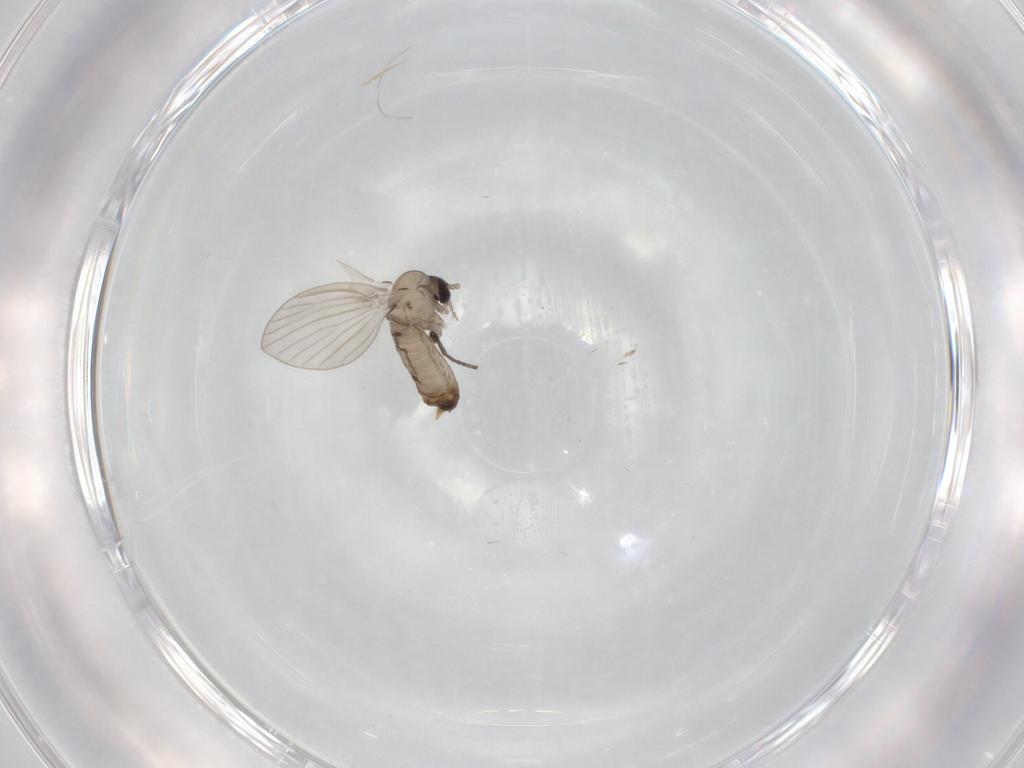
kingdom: Animalia
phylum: Arthropoda
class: Insecta
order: Diptera
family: Psychodidae
